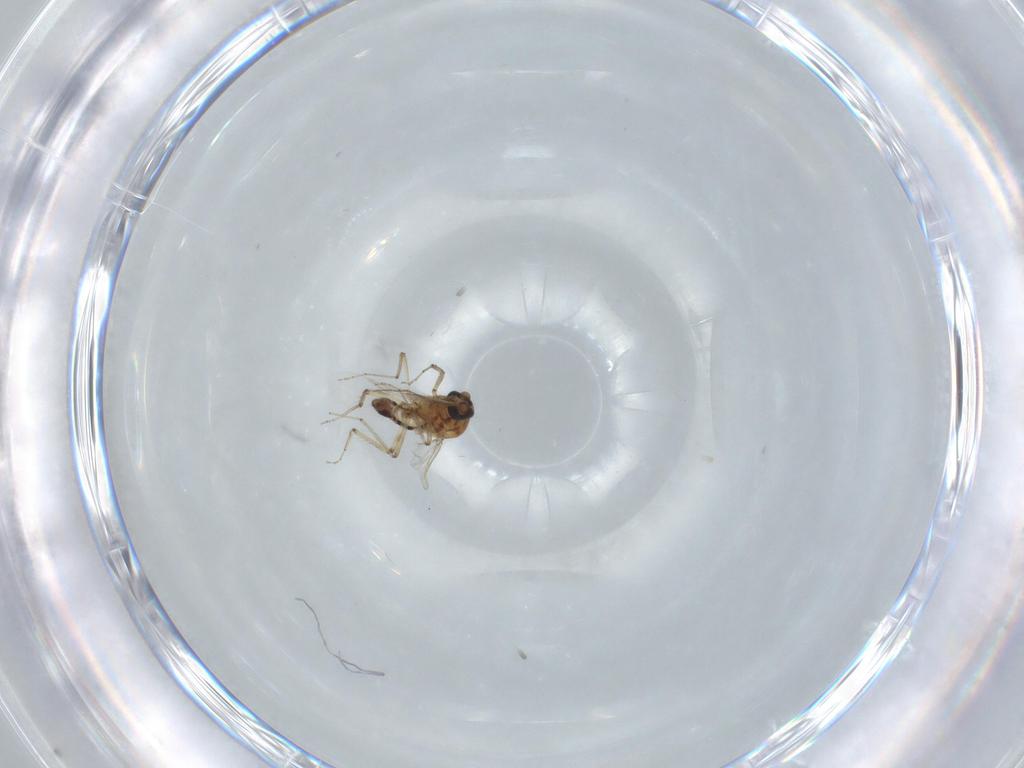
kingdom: Animalia
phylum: Arthropoda
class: Insecta
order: Diptera
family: Ceratopogonidae
